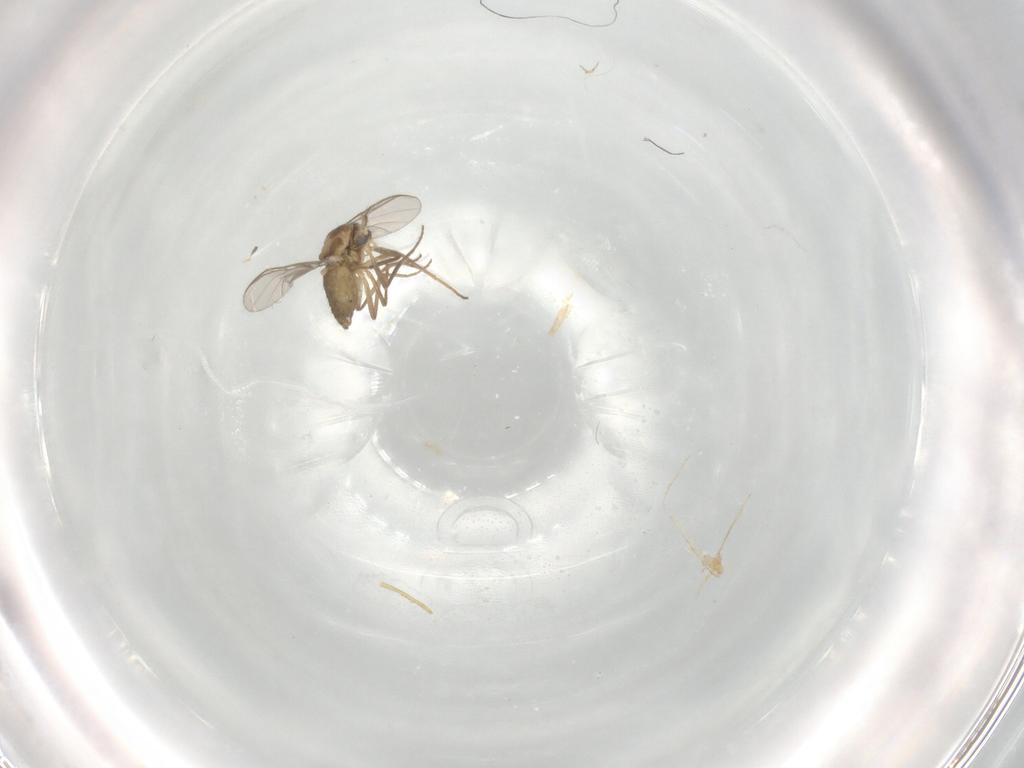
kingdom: Animalia
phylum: Arthropoda
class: Insecta
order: Diptera
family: Chironomidae
